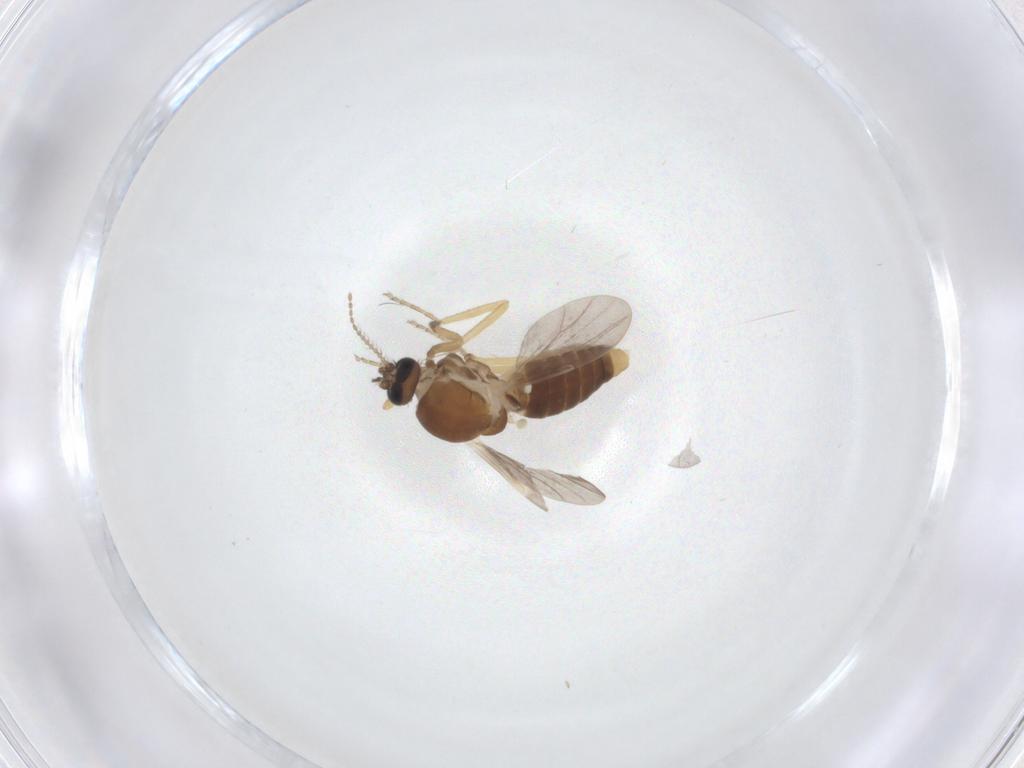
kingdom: Animalia
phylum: Arthropoda
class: Insecta
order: Diptera
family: Ceratopogonidae
